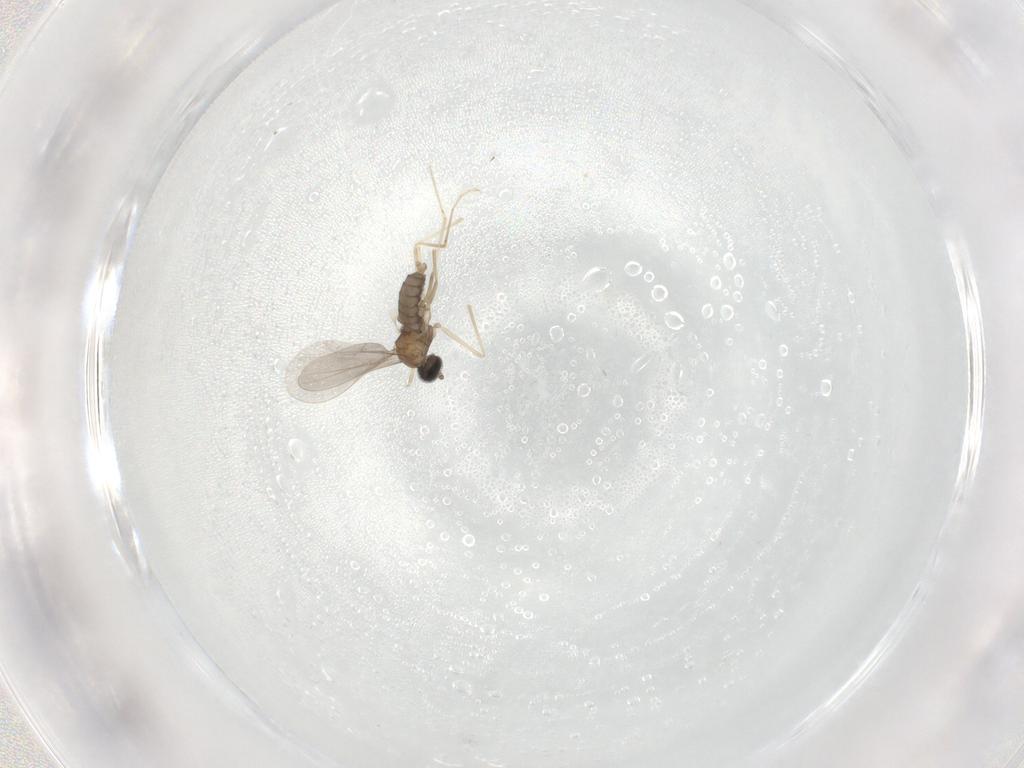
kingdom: Animalia
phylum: Arthropoda
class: Insecta
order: Diptera
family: Cecidomyiidae
